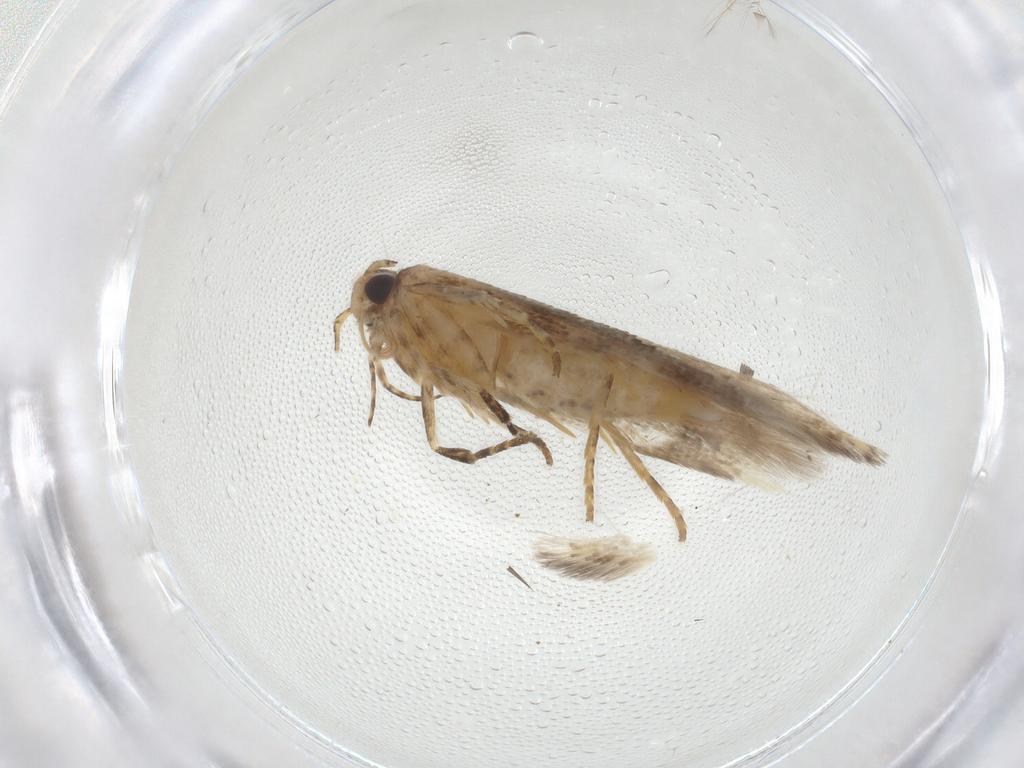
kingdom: Animalia
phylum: Arthropoda
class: Insecta
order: Lepidoptera
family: Gelechiidae
